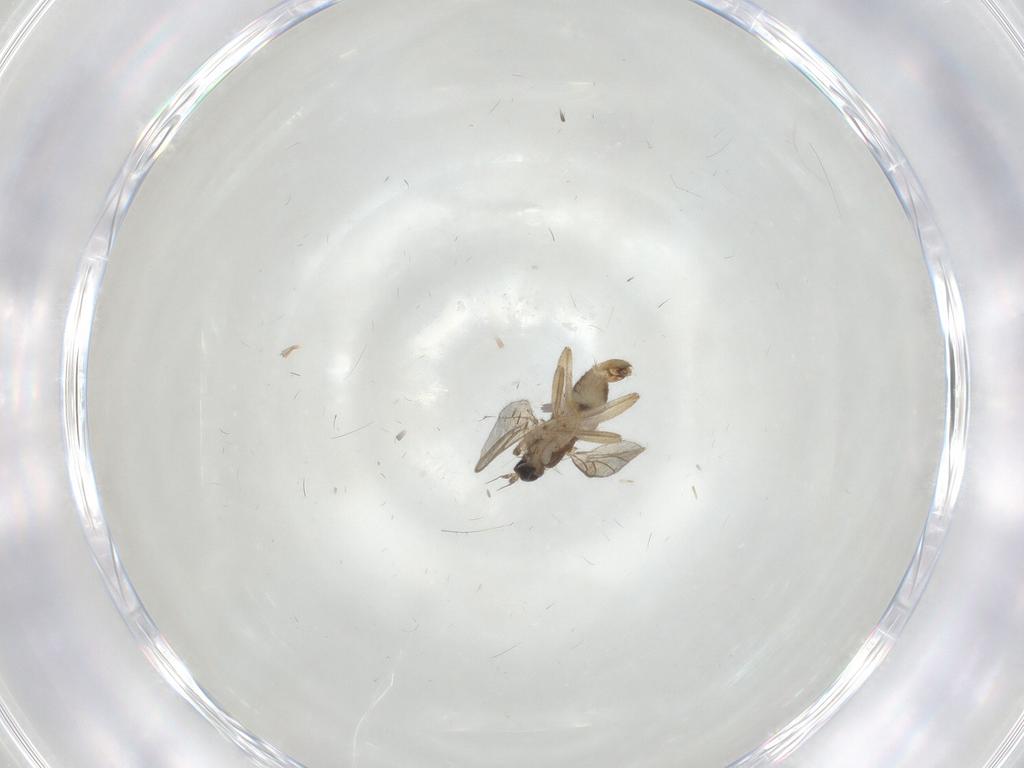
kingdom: Animalia
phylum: Arthropoda
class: Insecta
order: Diptera
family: Hybotidae
